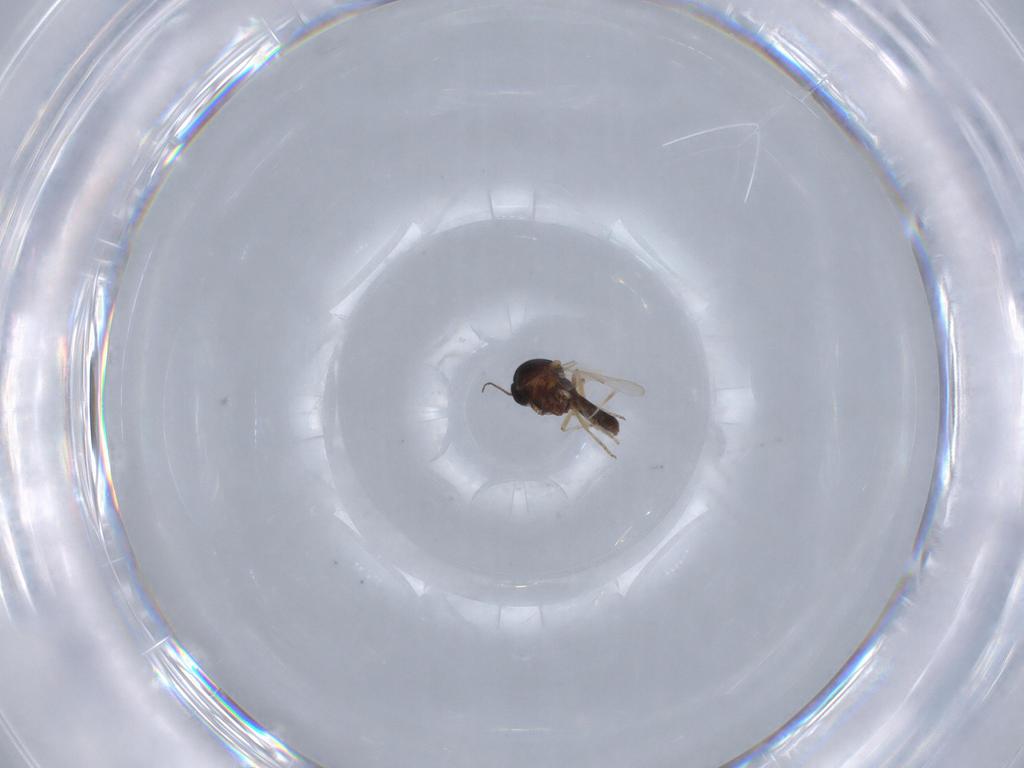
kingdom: Animalia
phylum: Arthropoda
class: Insecta
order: Diptera
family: Ceratopogonidae
